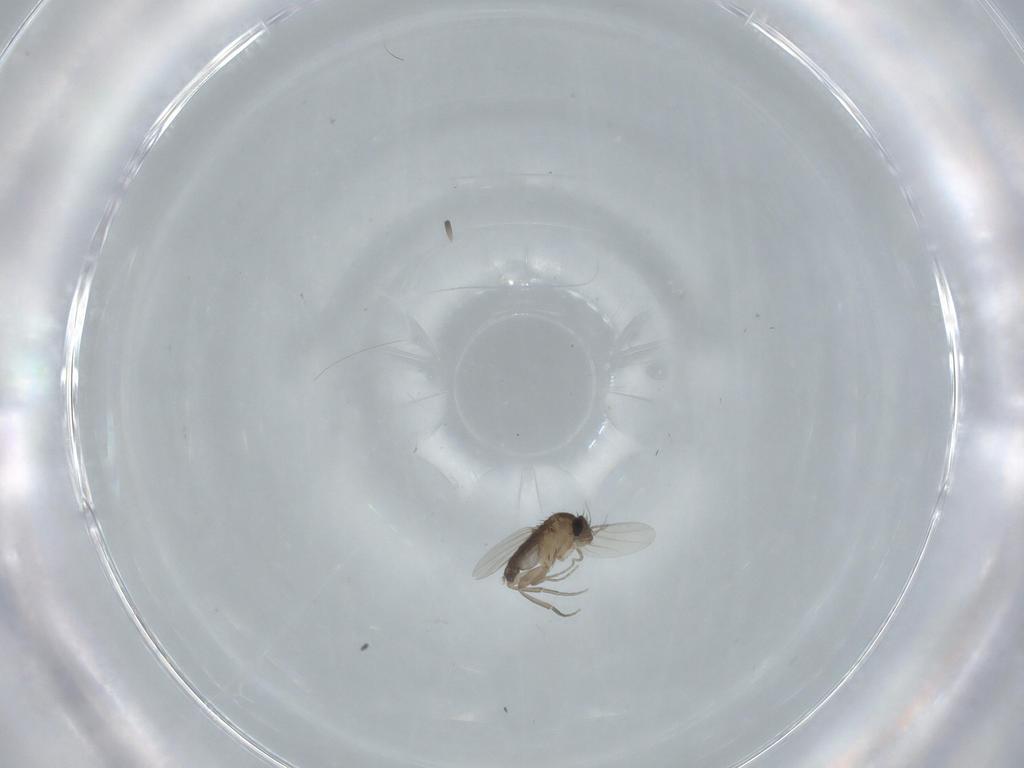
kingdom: Animalia
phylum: Arthropoda
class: Insecta
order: Diptera
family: Phoridae
